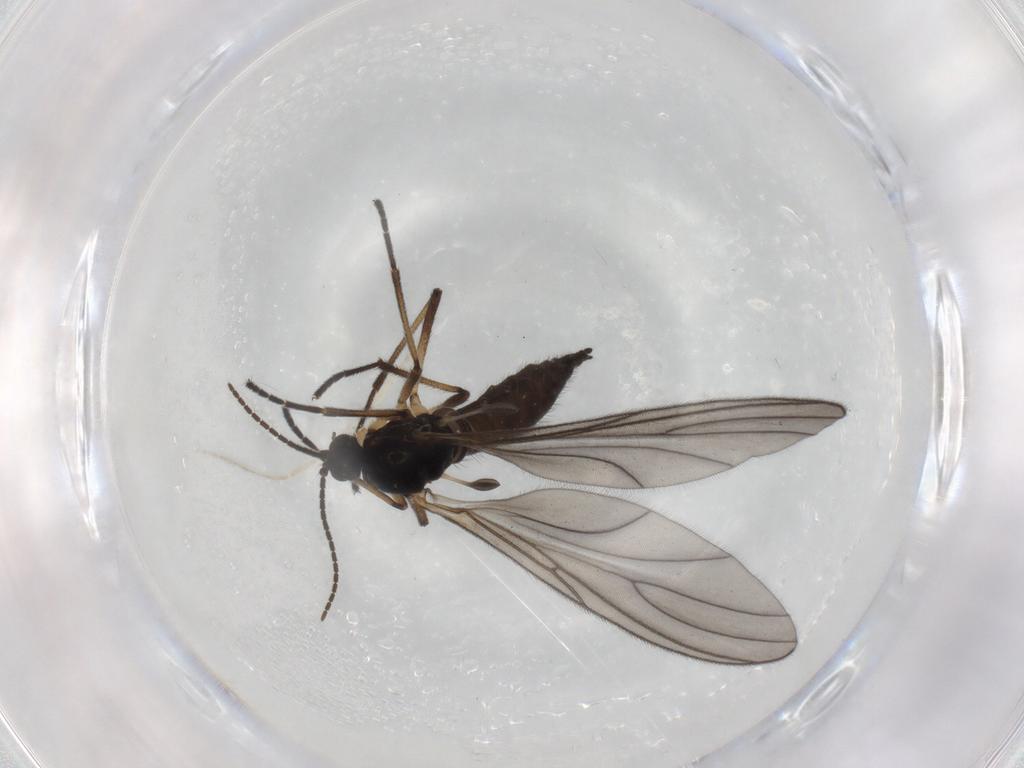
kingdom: Animalia
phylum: Arthropoda
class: Insecta
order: Diptera
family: Sciaridae
